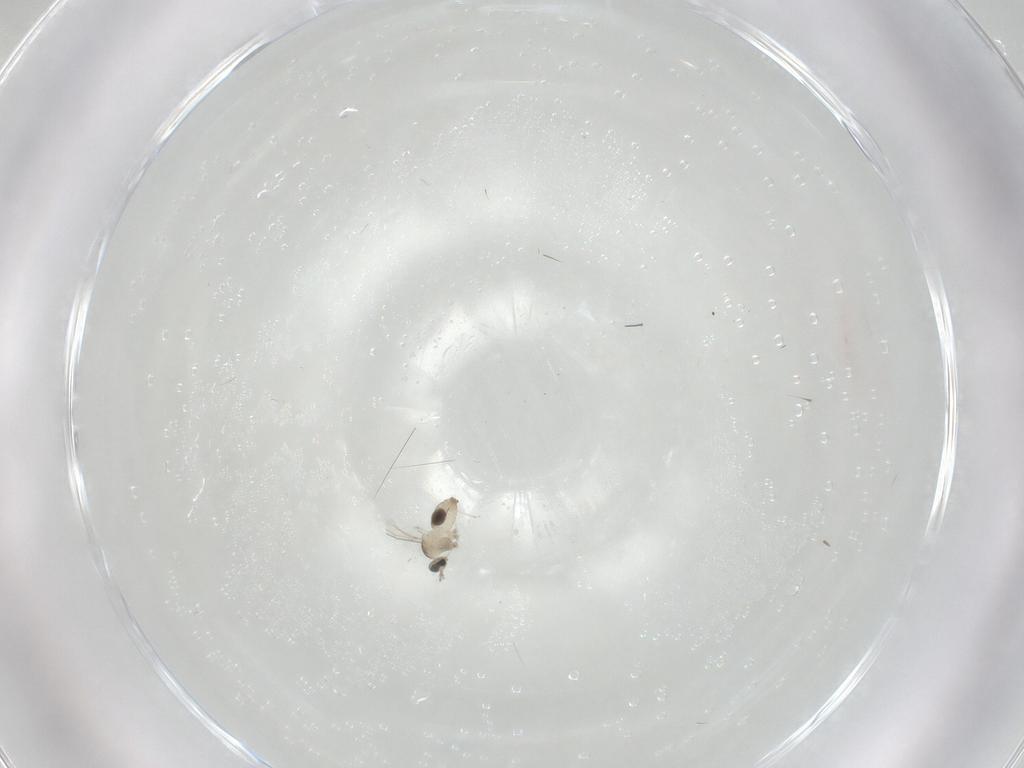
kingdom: Animalia
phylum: Arthropoda
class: Insecta
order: Diptera
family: Cecidomyiidae
